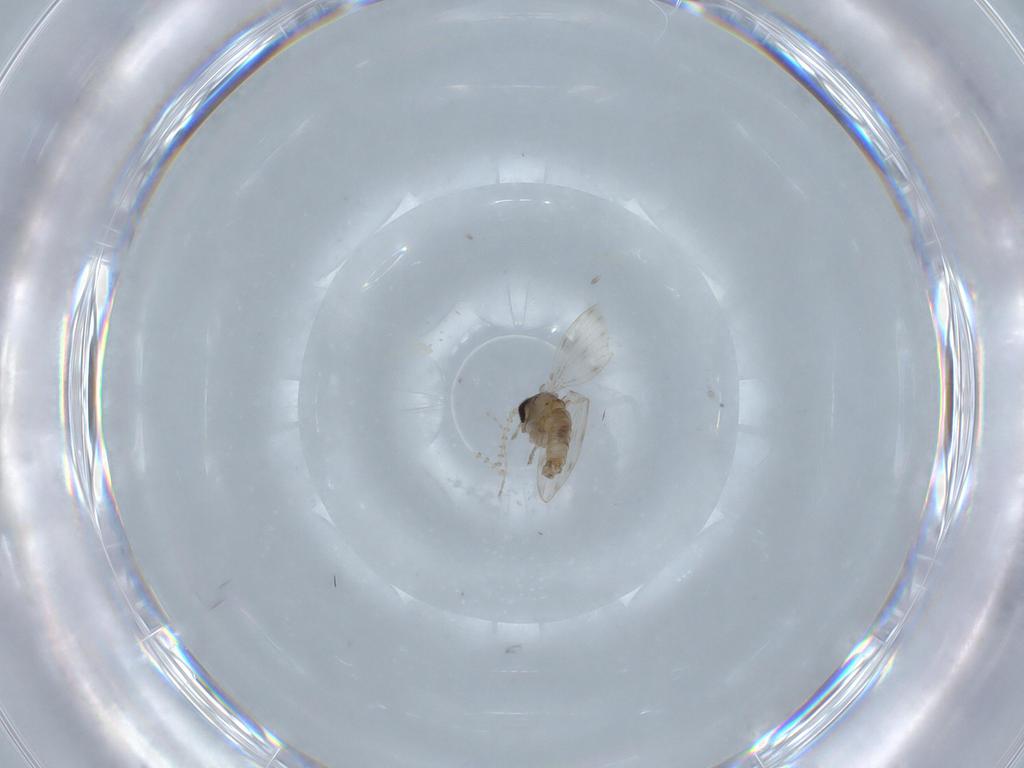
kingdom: Animalia
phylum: Arthropoda
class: Insecta
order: Diptera
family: Psychodidae
